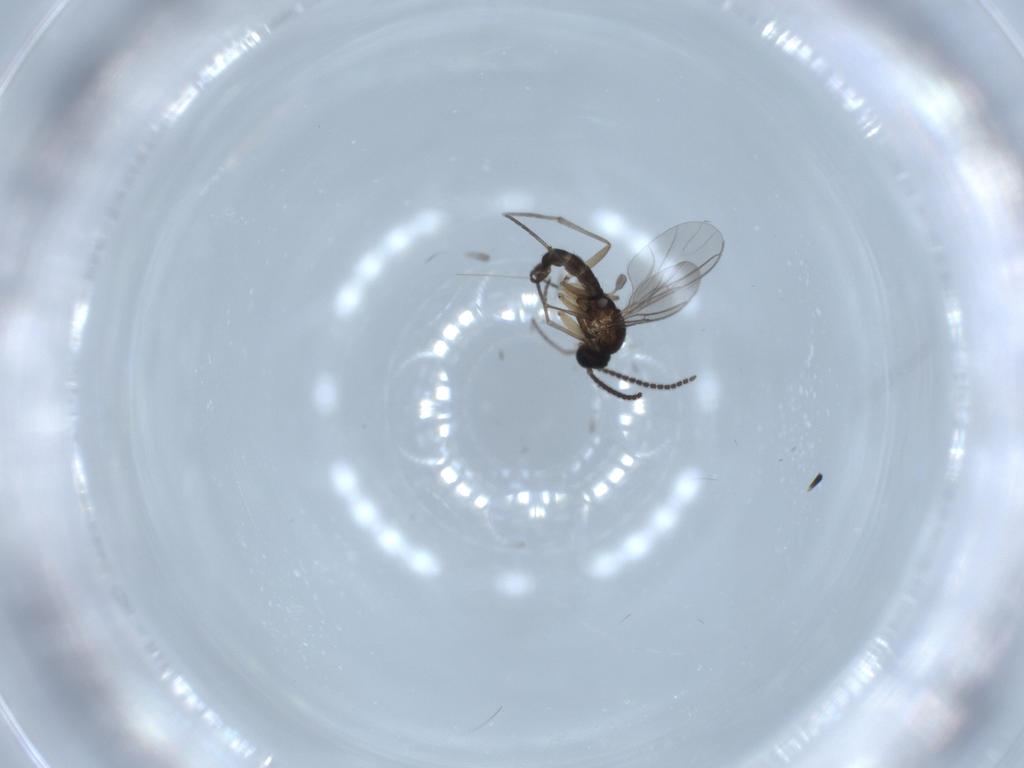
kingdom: Animalia
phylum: Arthropoda
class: Insecta
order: Diptera
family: Sciaridae
